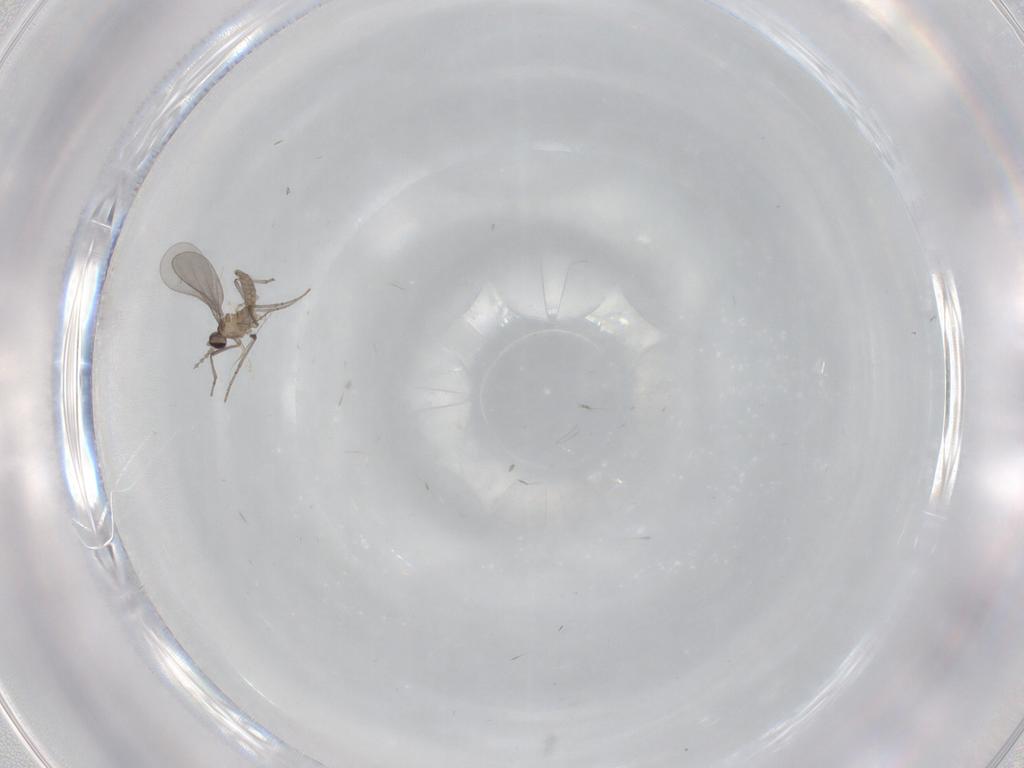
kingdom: Animalia
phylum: Arthropoda
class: Insecta
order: Diptera
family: Cecidomyiidae
